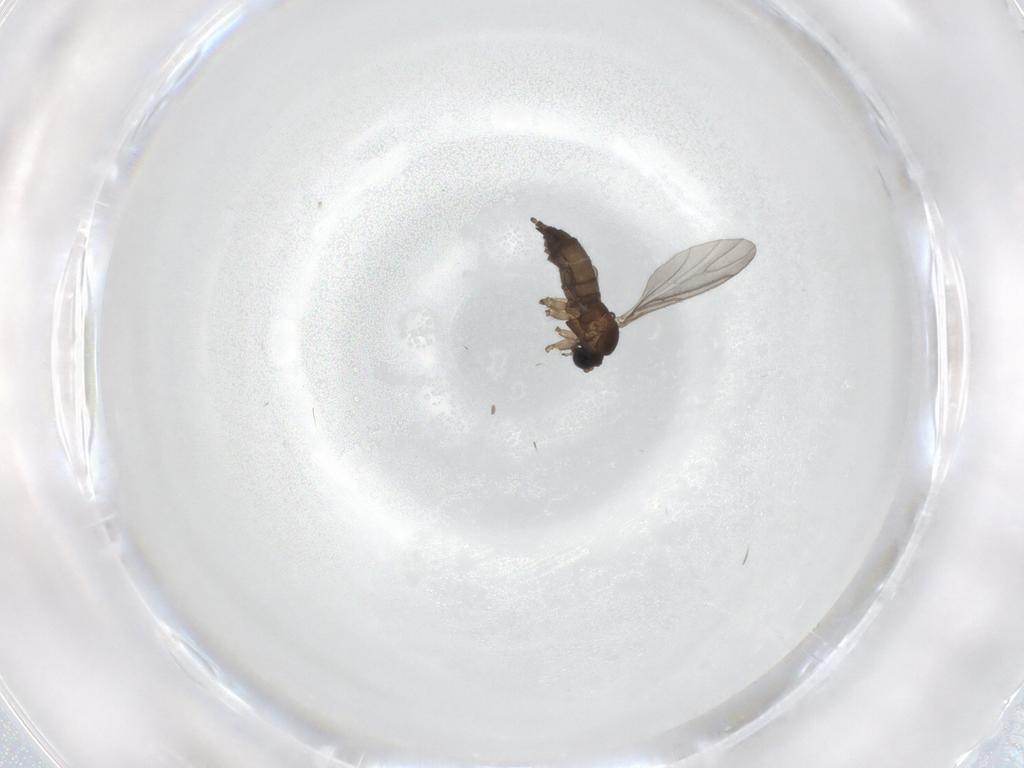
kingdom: Animalia
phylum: Arthropoda
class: Insecta
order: Diptera
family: Sciaridae
